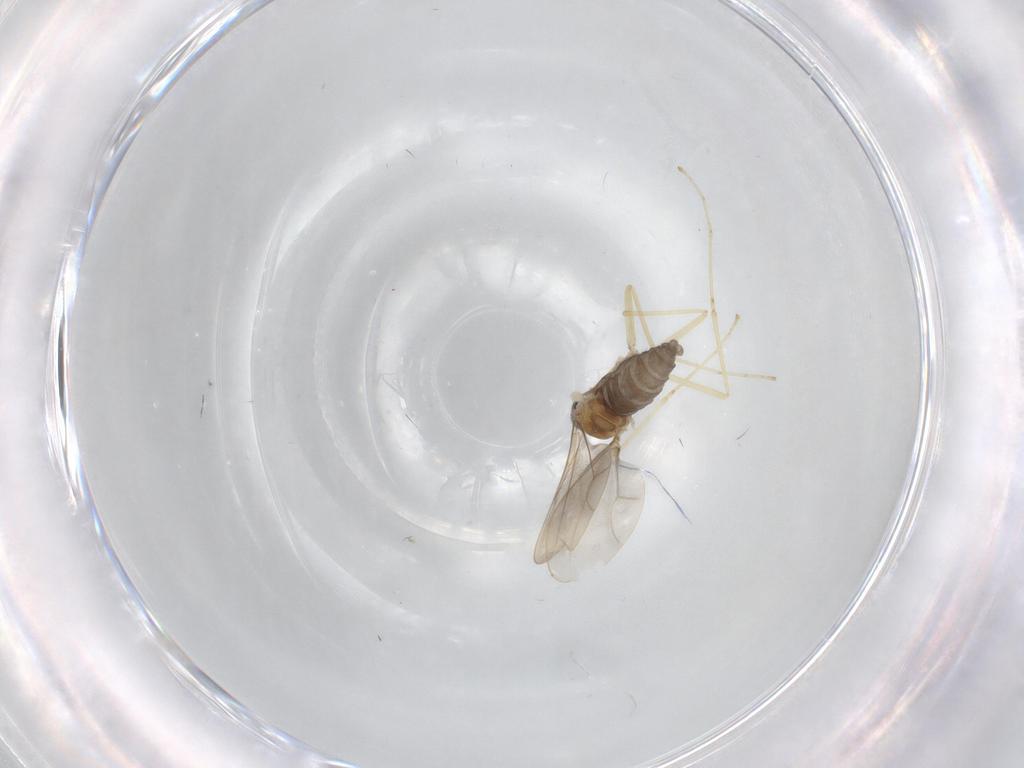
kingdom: Animalia
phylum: Arthropoda
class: Insecta
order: Diptera
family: Cecidomyiidae
